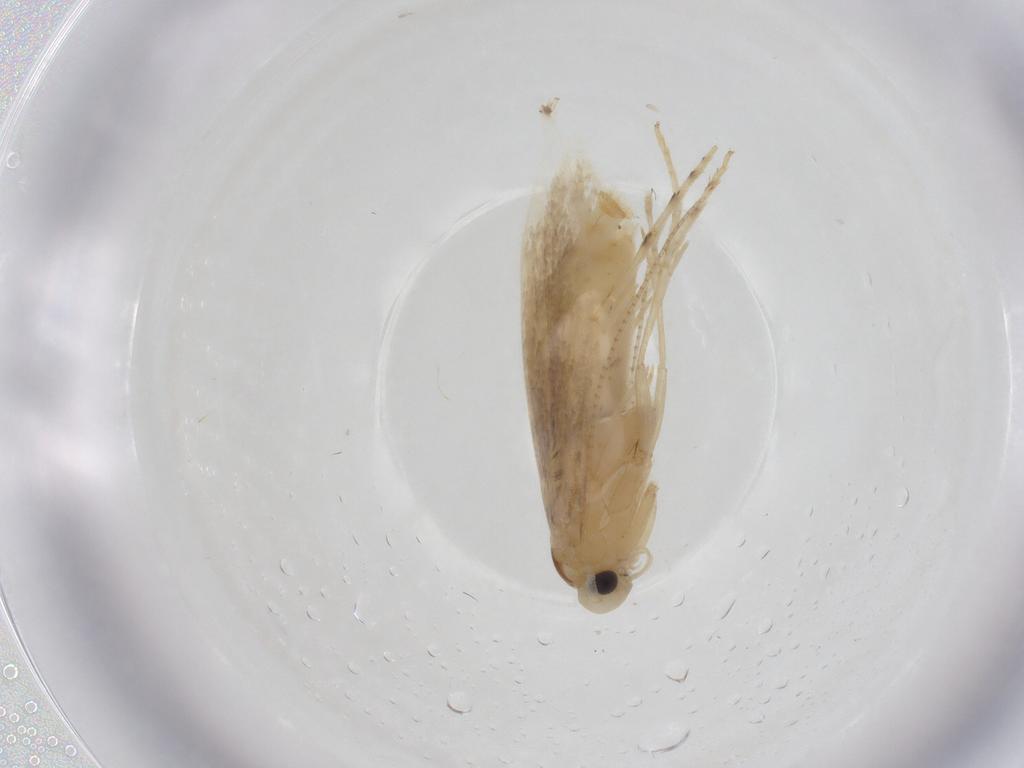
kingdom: Animalia
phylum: Arthropoda
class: Insecta
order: Lepidoptera
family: Gracillariidae
